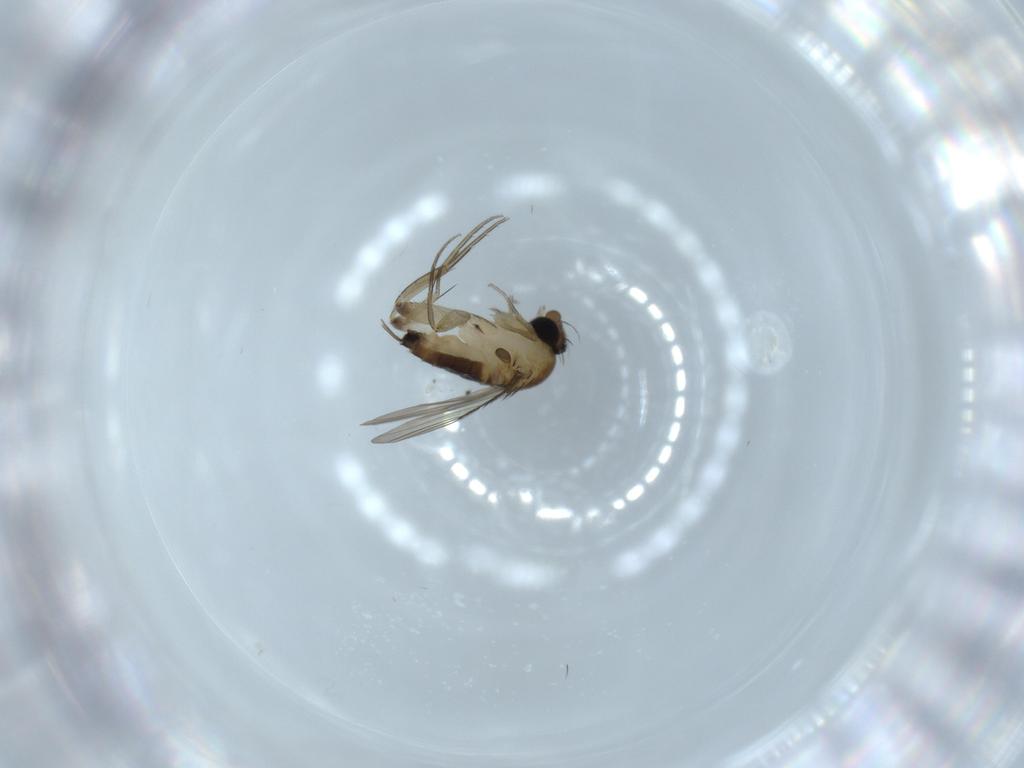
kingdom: Animalia
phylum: Arthropoda
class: Insecta
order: Diptera
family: Phoridae
